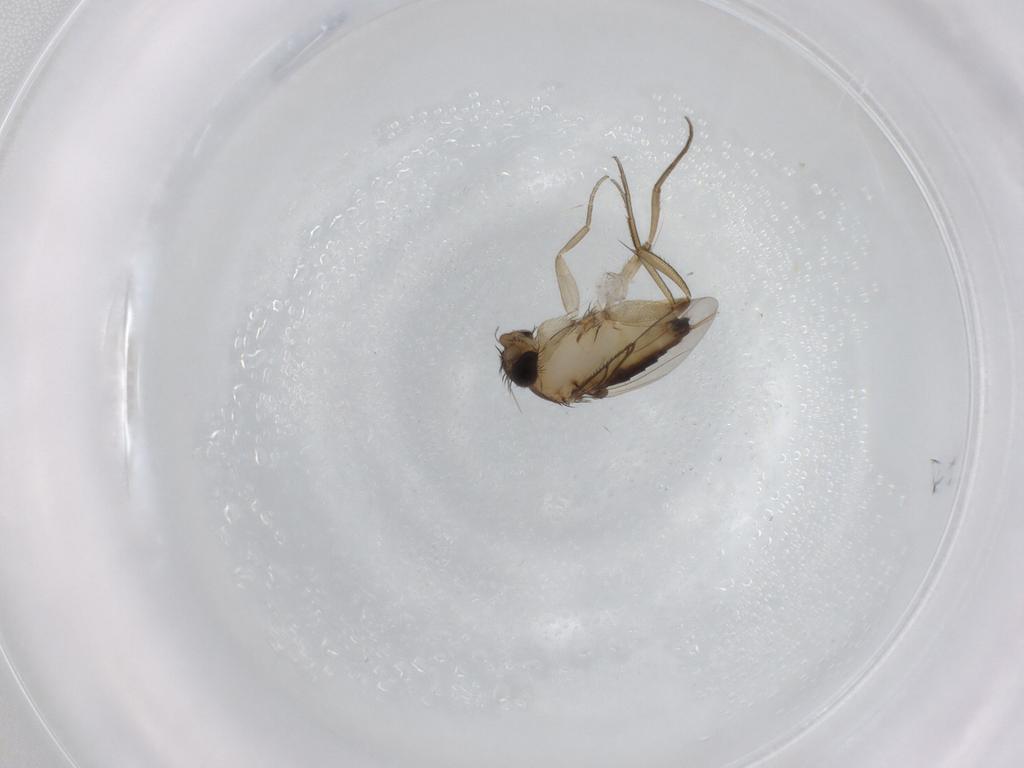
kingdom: Animalia
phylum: Arthropoda
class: Insecta
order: Diptera
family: Phoridae
